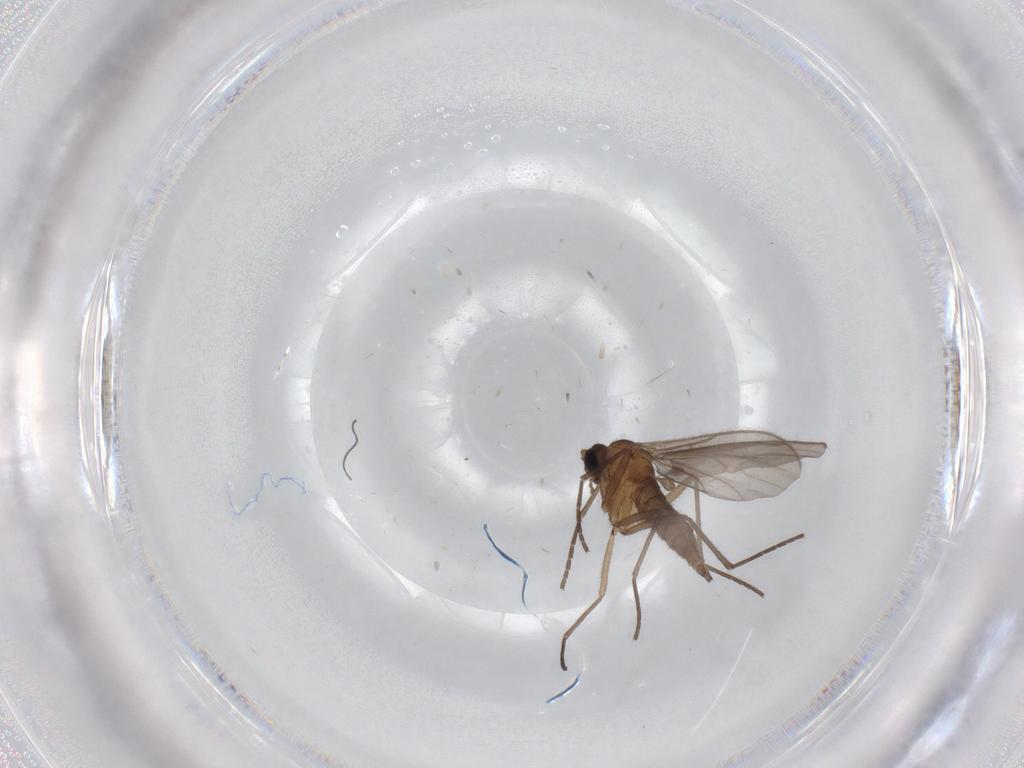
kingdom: Animalia
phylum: Arthropoda
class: Insecta
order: Diptera
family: Sciaridae
